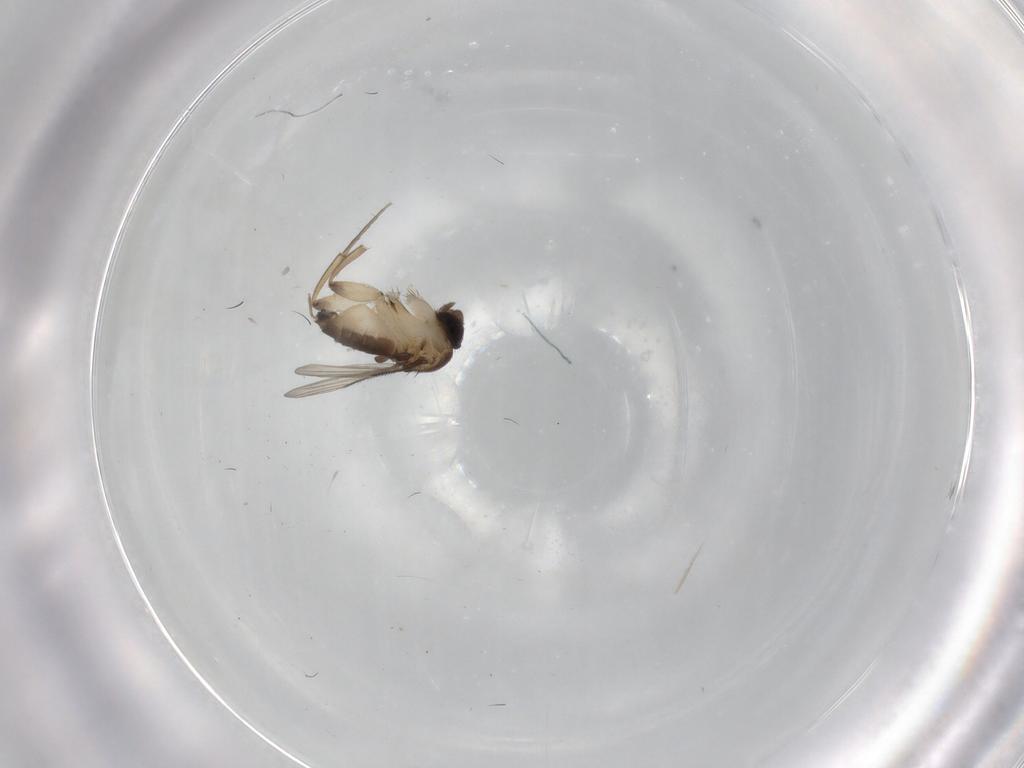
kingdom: Animalia
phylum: Arthropoda
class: Insecta
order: Diptera
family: Phoridae
